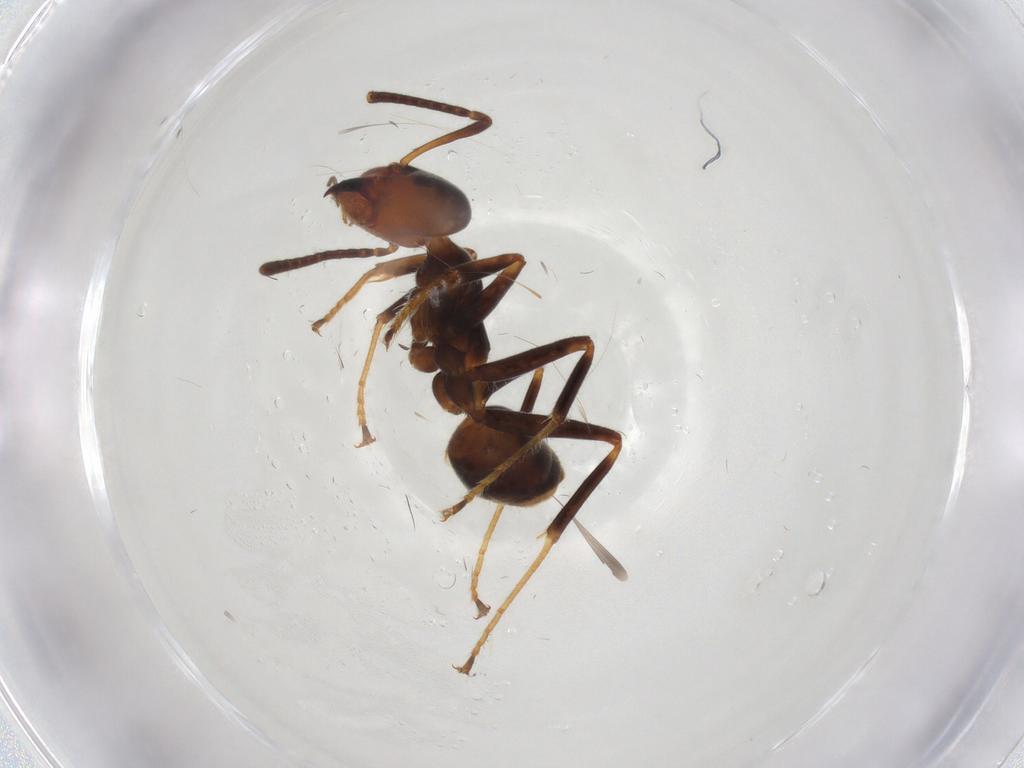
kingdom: Animalia
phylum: Arthropoda
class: Insecta
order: Hymenoptera
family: Formicidae
